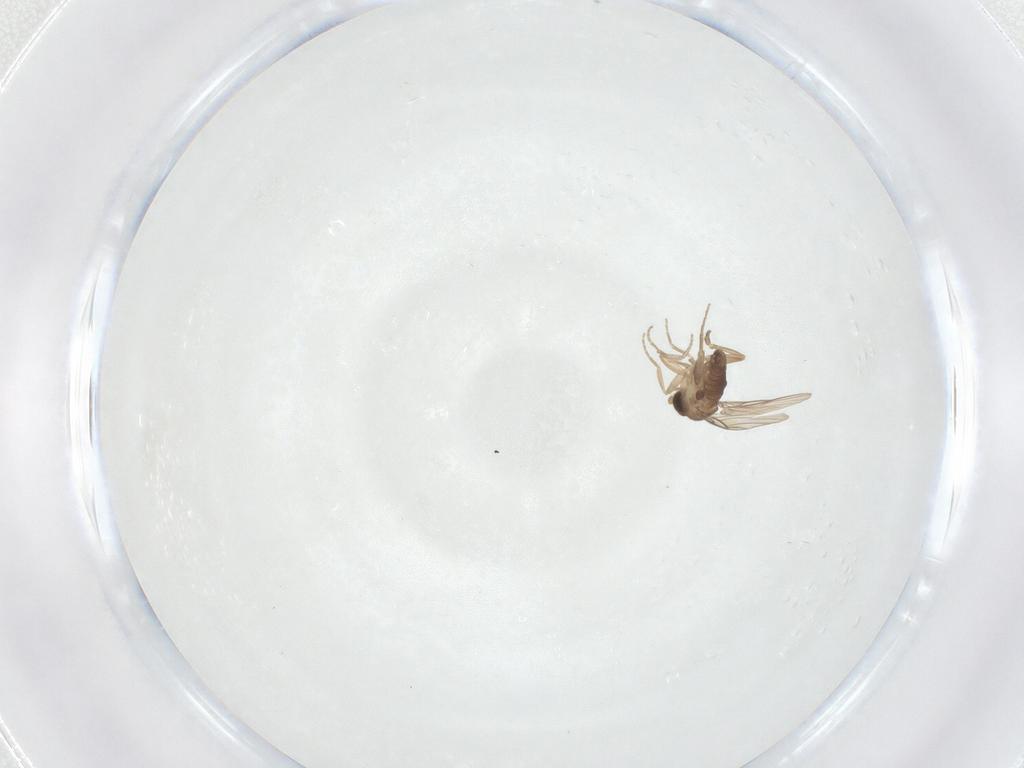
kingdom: Animalia
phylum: Arthropoda
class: Insecta
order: Diptera
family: Phoridae
